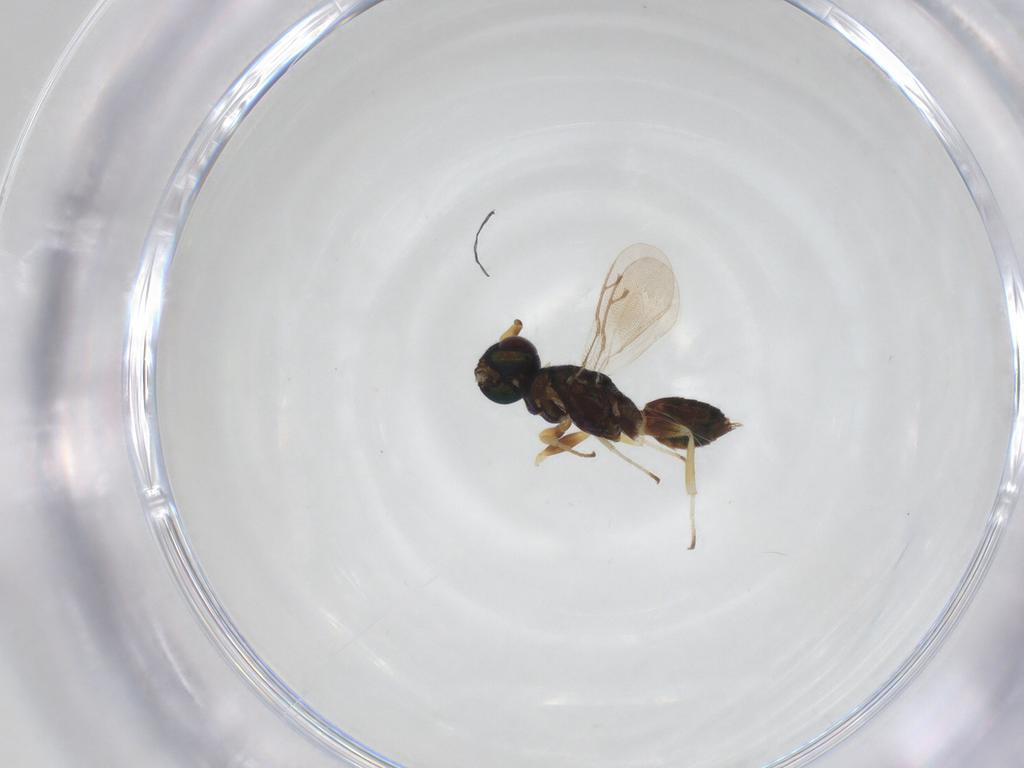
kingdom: Animalia
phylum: Arthropoda
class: Insecta
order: Hymenoptera
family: Eupelmidae
